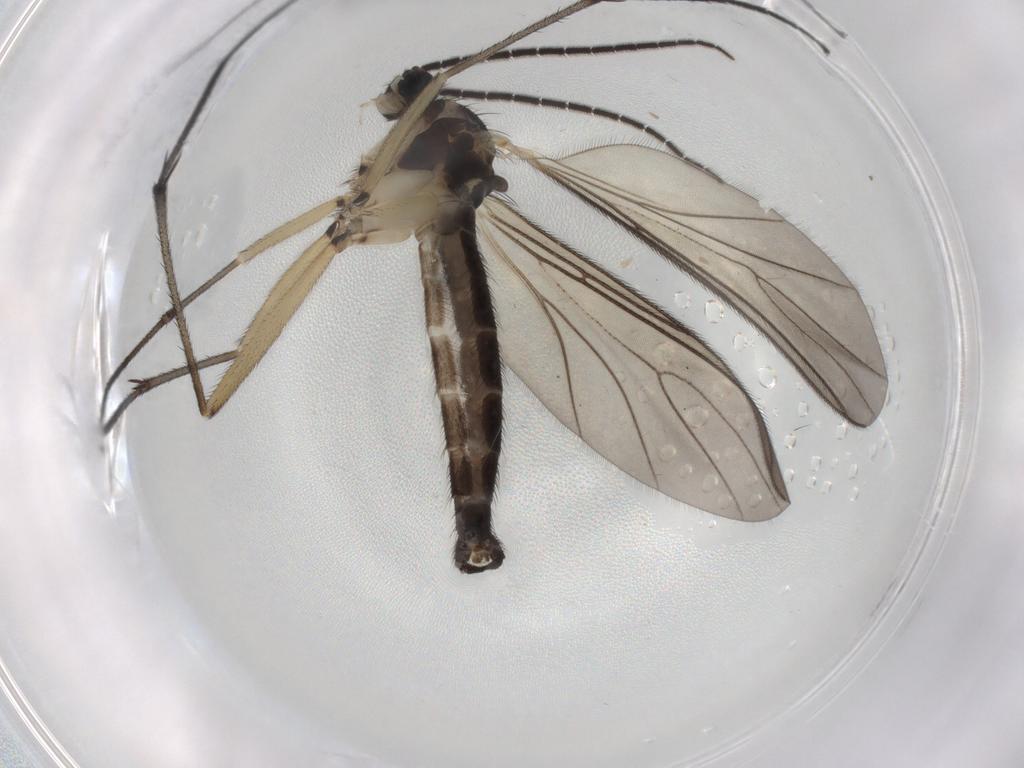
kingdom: Animalia
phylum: Arthropoda
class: Insecta
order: Diptera
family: Sciaridae
